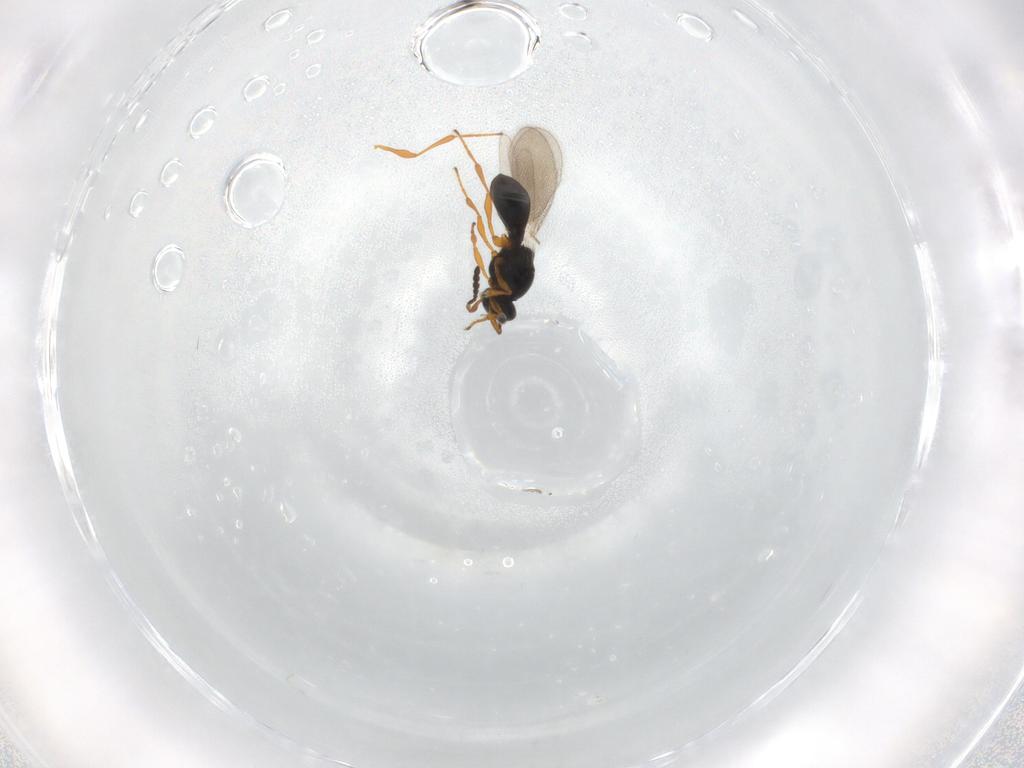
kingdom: Animalia
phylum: Arthropoda
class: Insecta
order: Hymenoptera
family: Platygastridae
